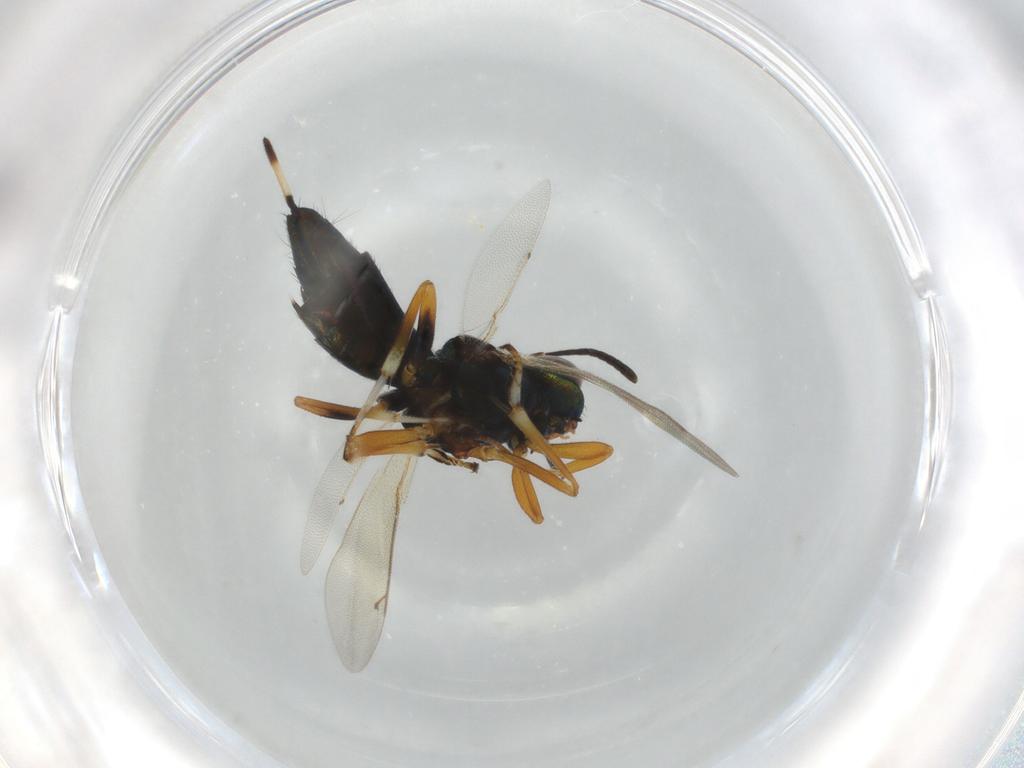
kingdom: Animalia
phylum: Arthropoda
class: Insecta
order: Hymenoptera
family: Eupelmidae
